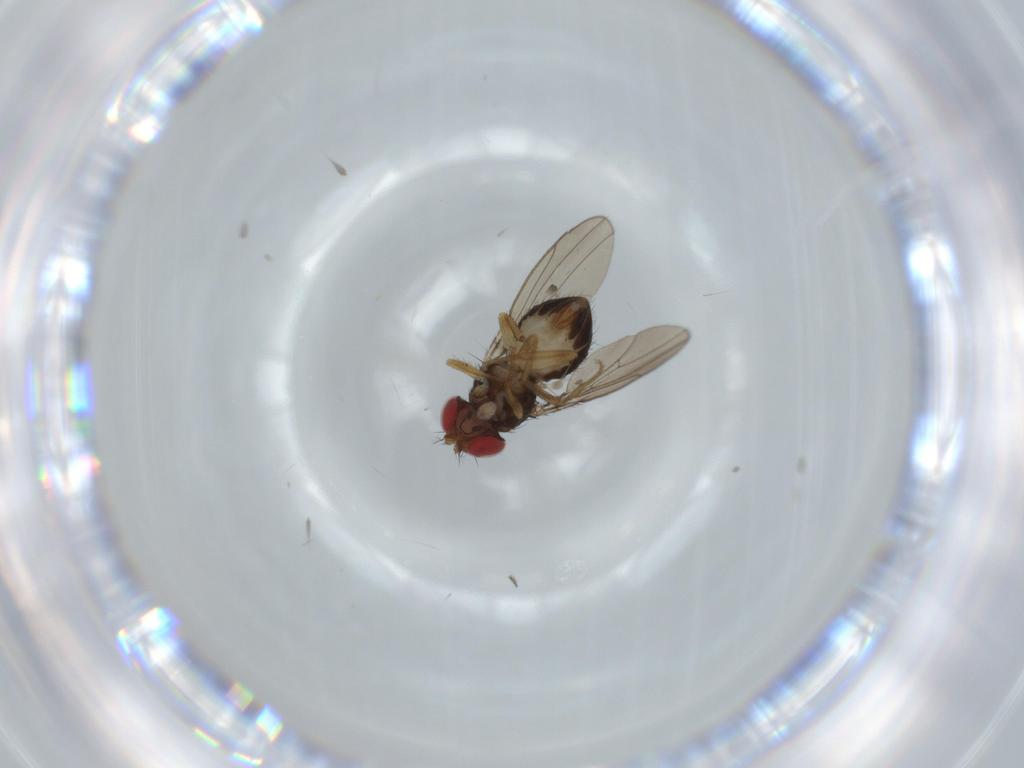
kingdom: Animalia
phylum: Arthropoda
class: Insecta
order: Diptera
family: Drosophilidae
